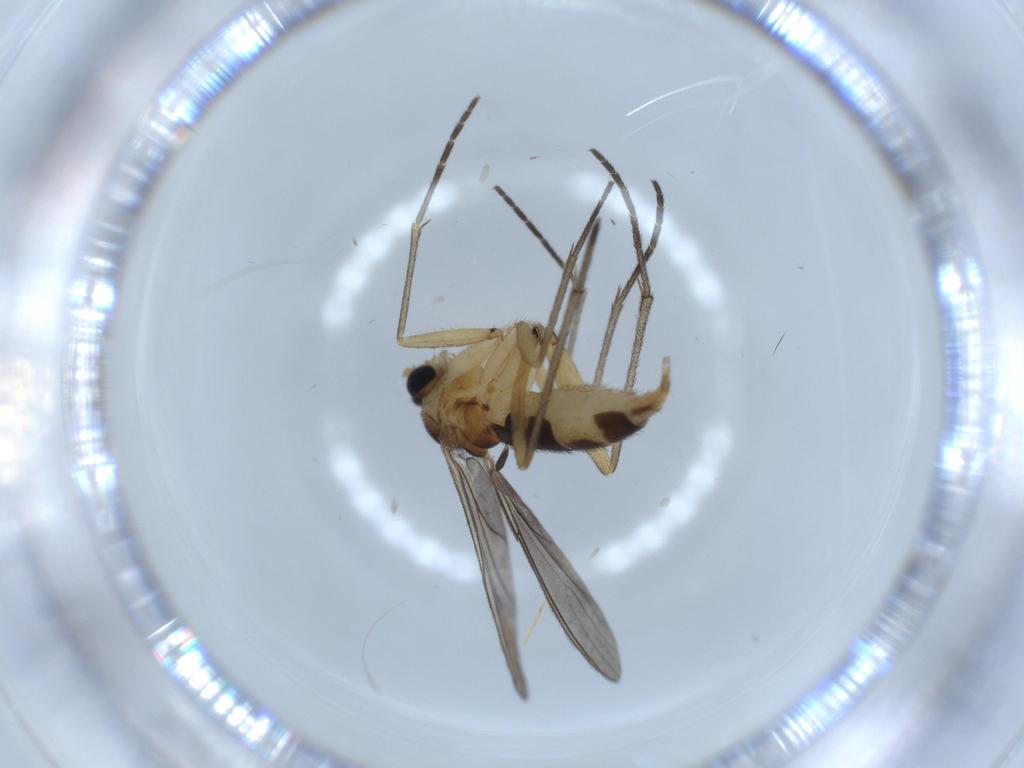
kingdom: Animalia
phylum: Arthropoda
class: Insecta
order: Diptera
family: Sciaridae
